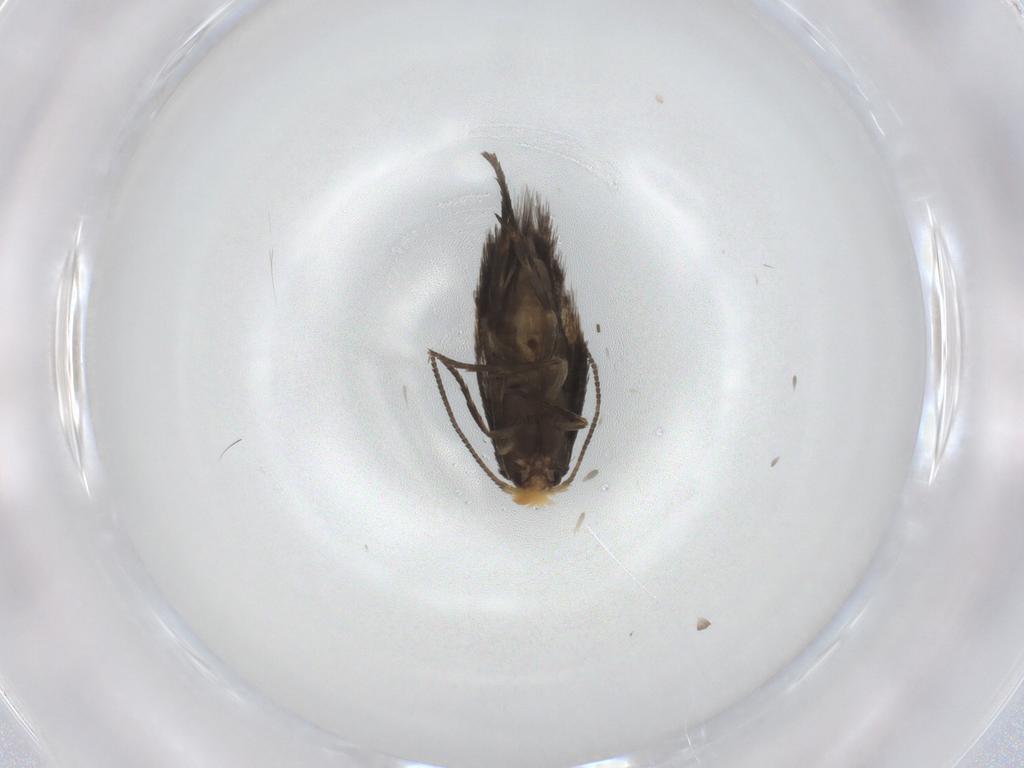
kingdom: Animalia
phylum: Arthropoda
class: Insecta
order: Lepidoptera
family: Nepticulidae
